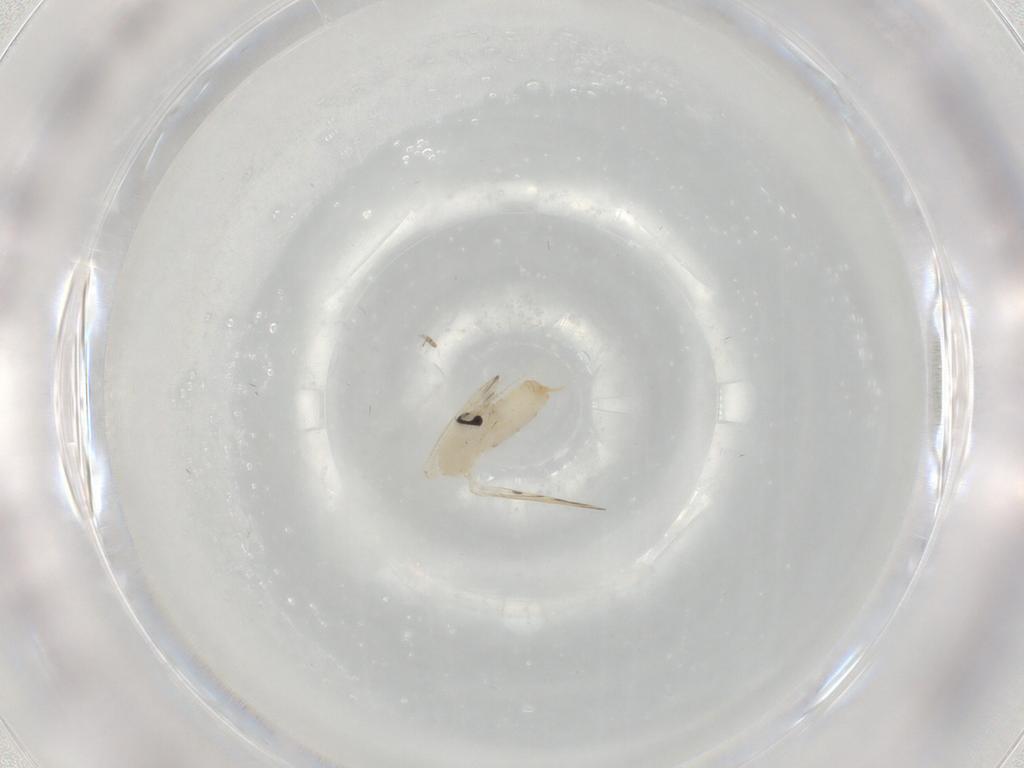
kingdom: Animalia
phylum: Arthropoda
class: Insecta
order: Diptera
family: Psychodidae
